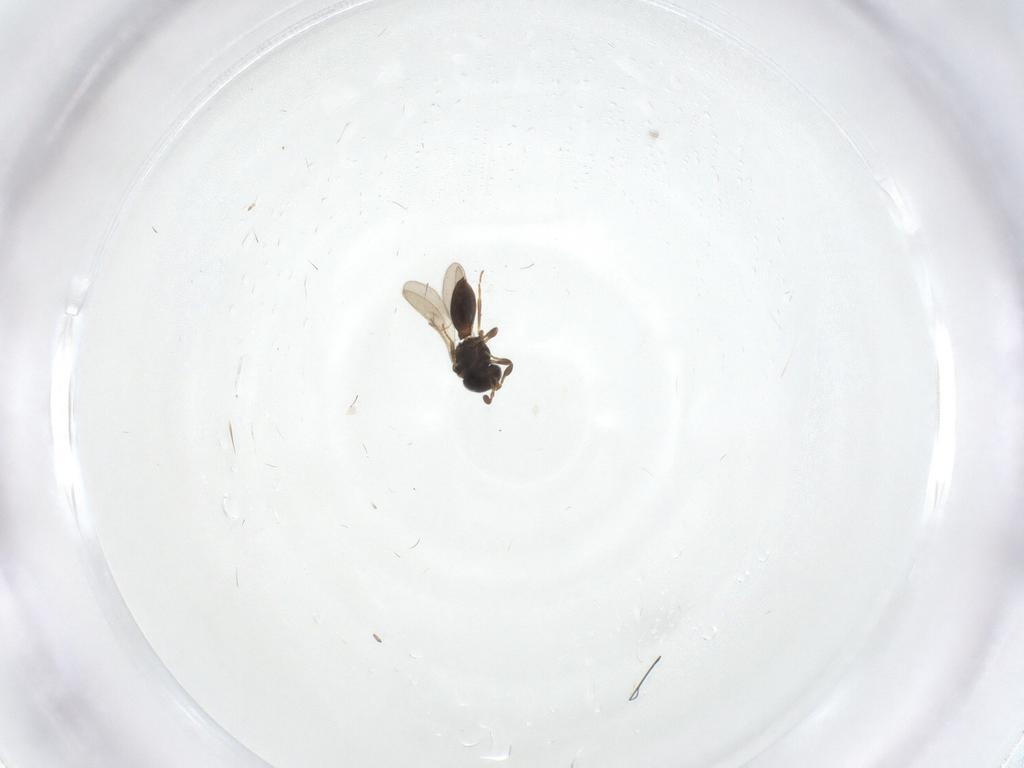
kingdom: Animalia
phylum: Arthropoda
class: Insecta
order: Hymenoptera
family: Scelionidae
